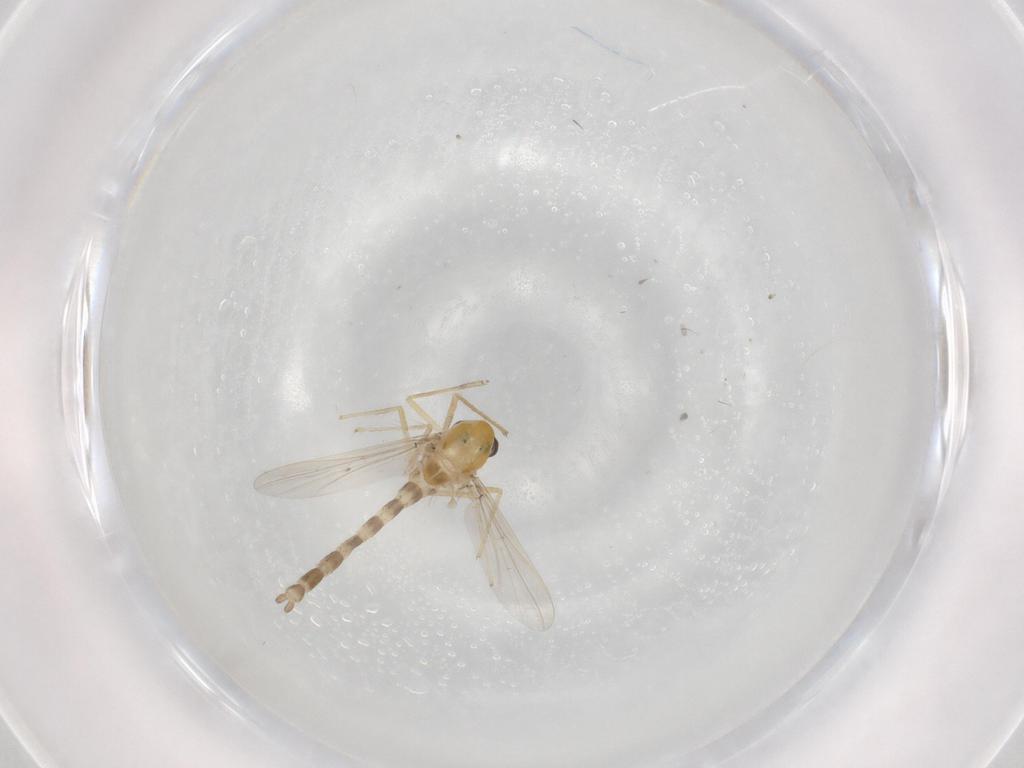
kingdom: Animalia
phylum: Arthropoda
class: Insecta
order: Diptera
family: Chironomidae
